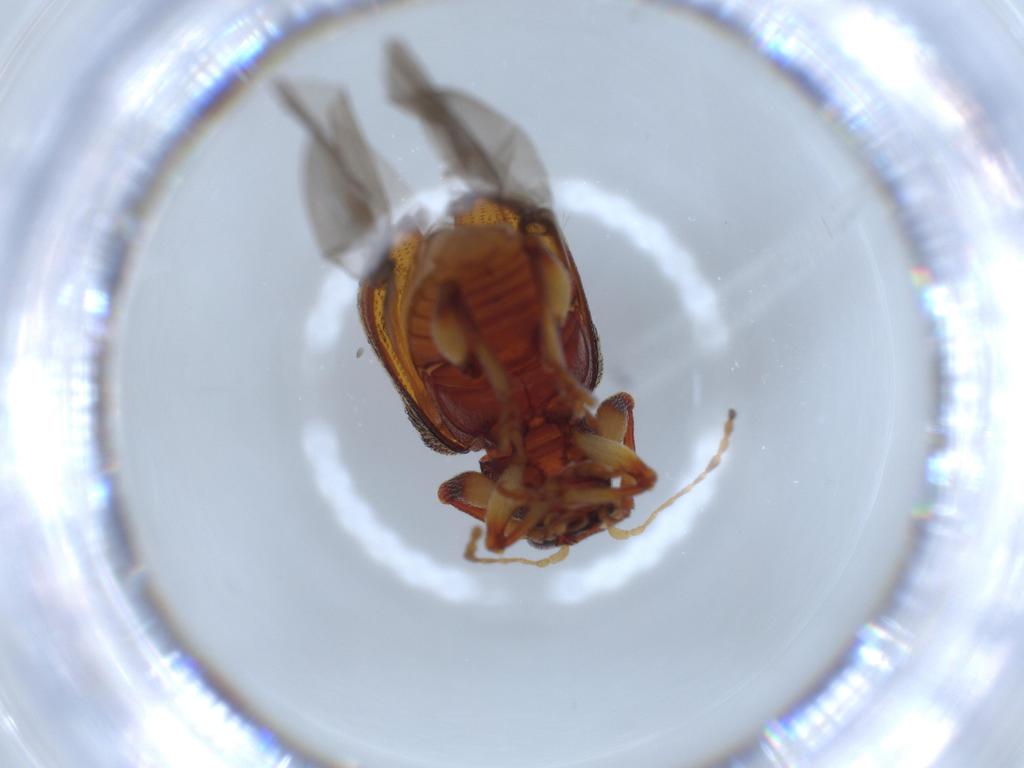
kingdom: Animalia
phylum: Arthropoda
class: Insecta
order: Coleoptera
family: Chrysomelidae
